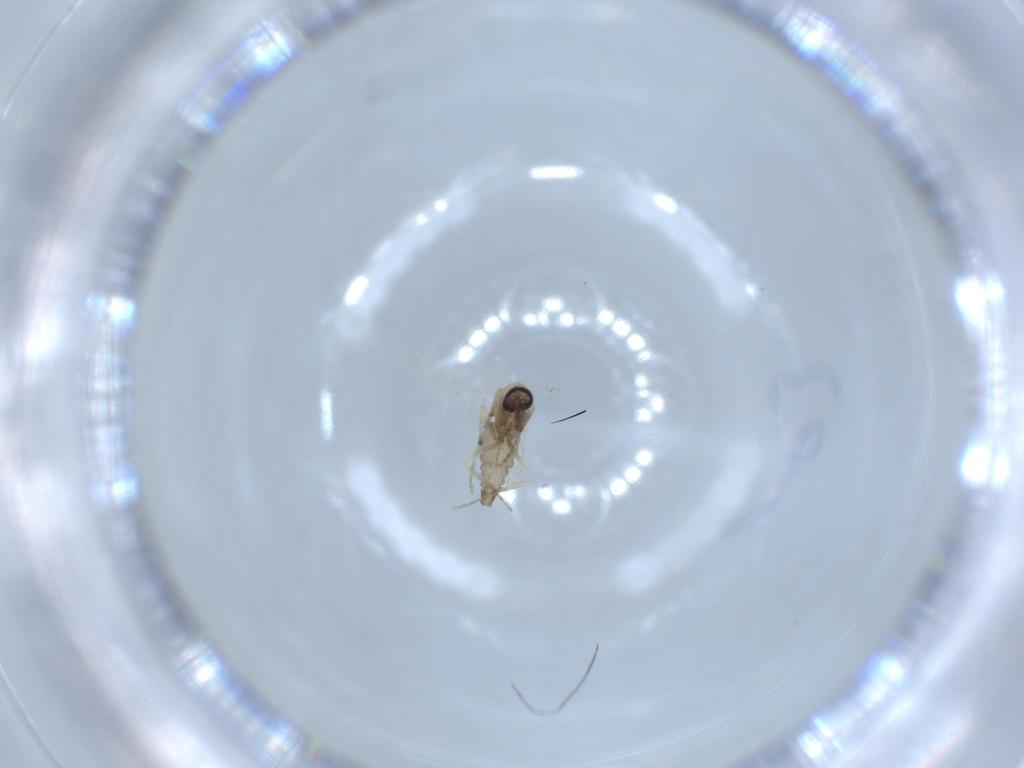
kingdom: Animalia
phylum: Arthropoda
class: Insecta
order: Diptera
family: Ceratopogonidae
